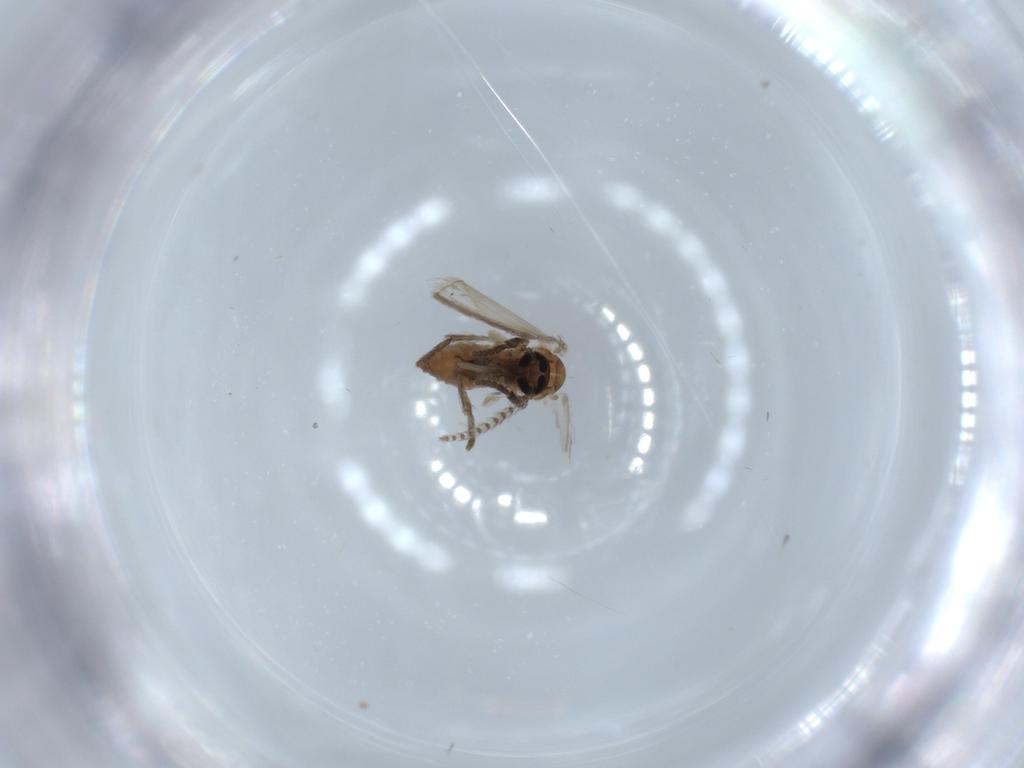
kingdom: Animalia
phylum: Arthropoda
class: Insecta
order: Diptera
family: Psychodidae
